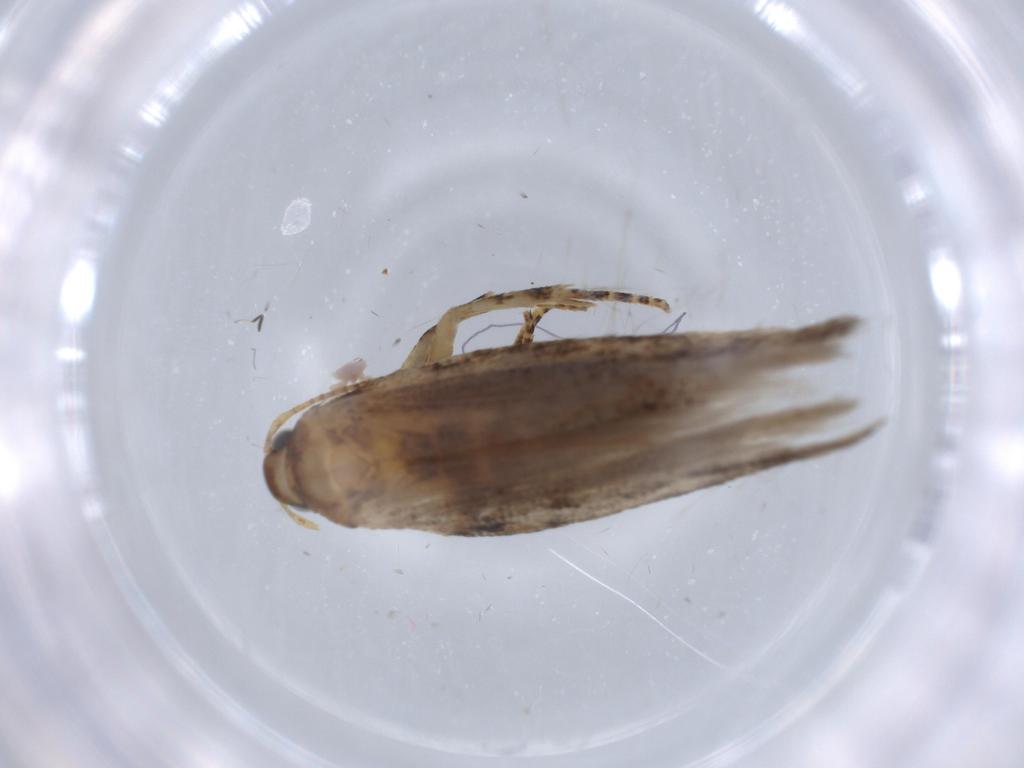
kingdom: Animalia
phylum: Arthropoda
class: Insecta
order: Lepidoptera
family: Gelechiidae
